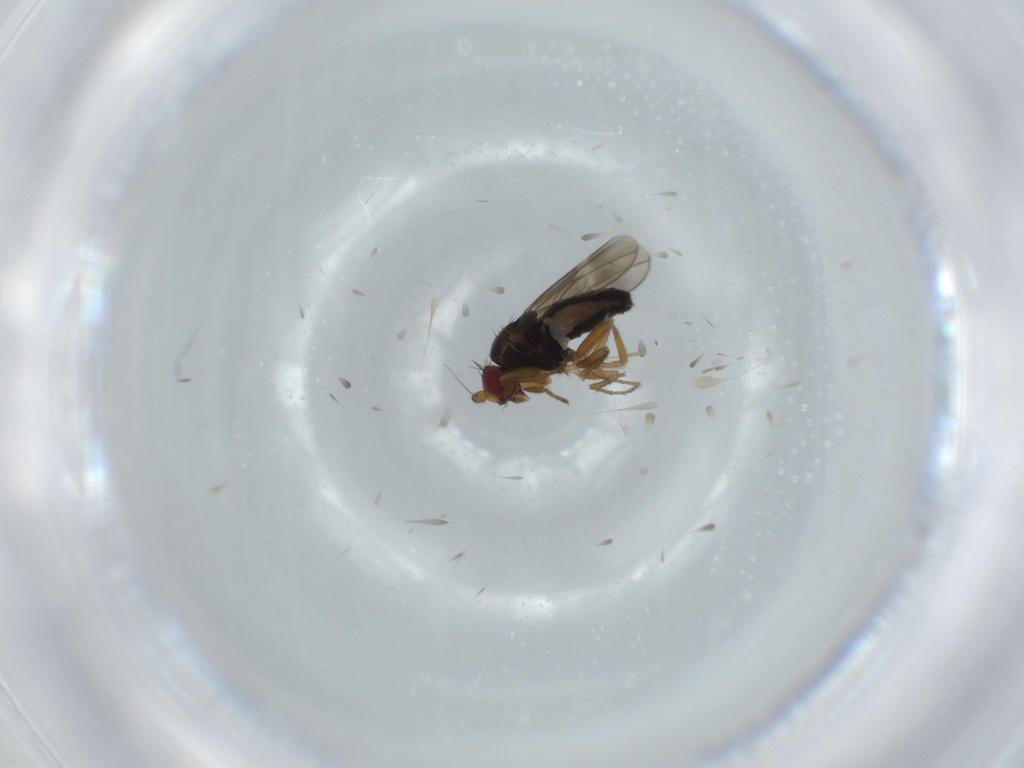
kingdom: Animalia
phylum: Arthropoda
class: Insecta
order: Diptera
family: Sphaeroceridae
